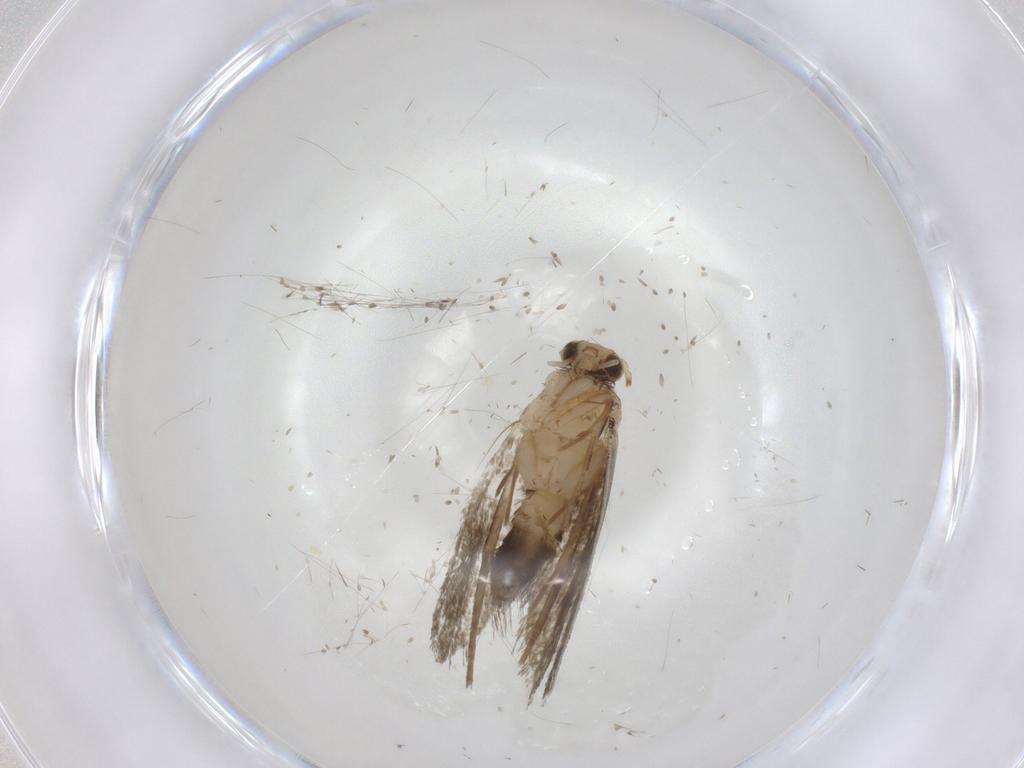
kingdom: Animalia
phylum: Arthropoda
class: Insecta
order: Lepidoptera
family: Tineidae
